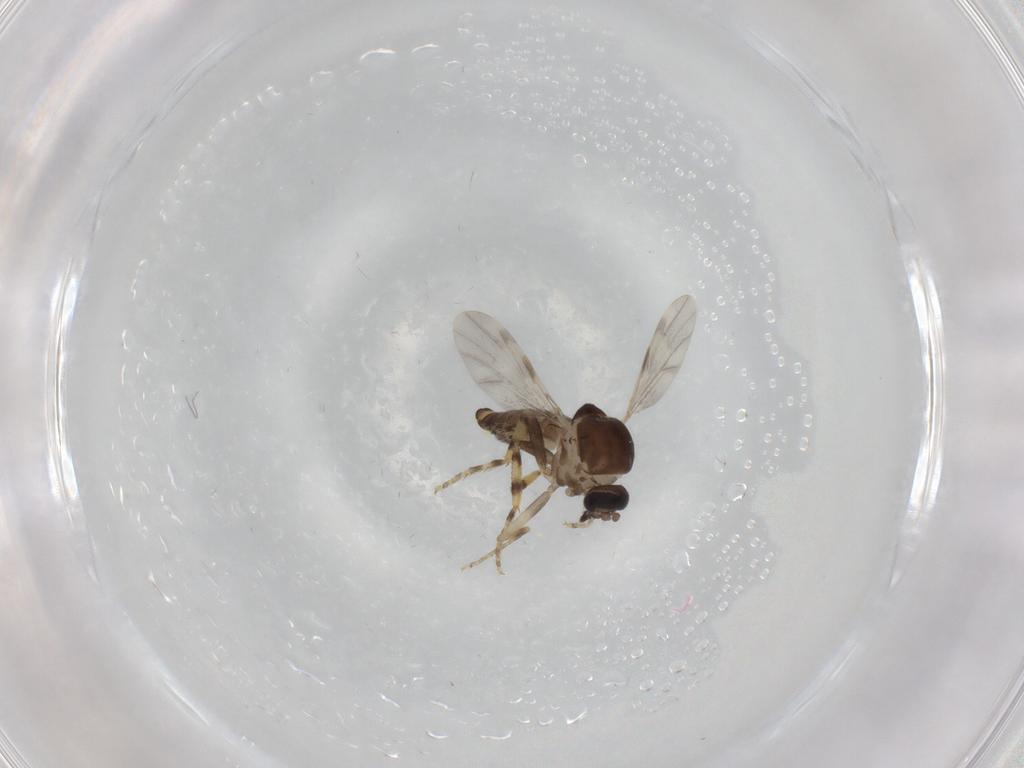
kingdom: Animalia
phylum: Arthropoda
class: Insecta
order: Diptera
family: Ceratopogonidae
